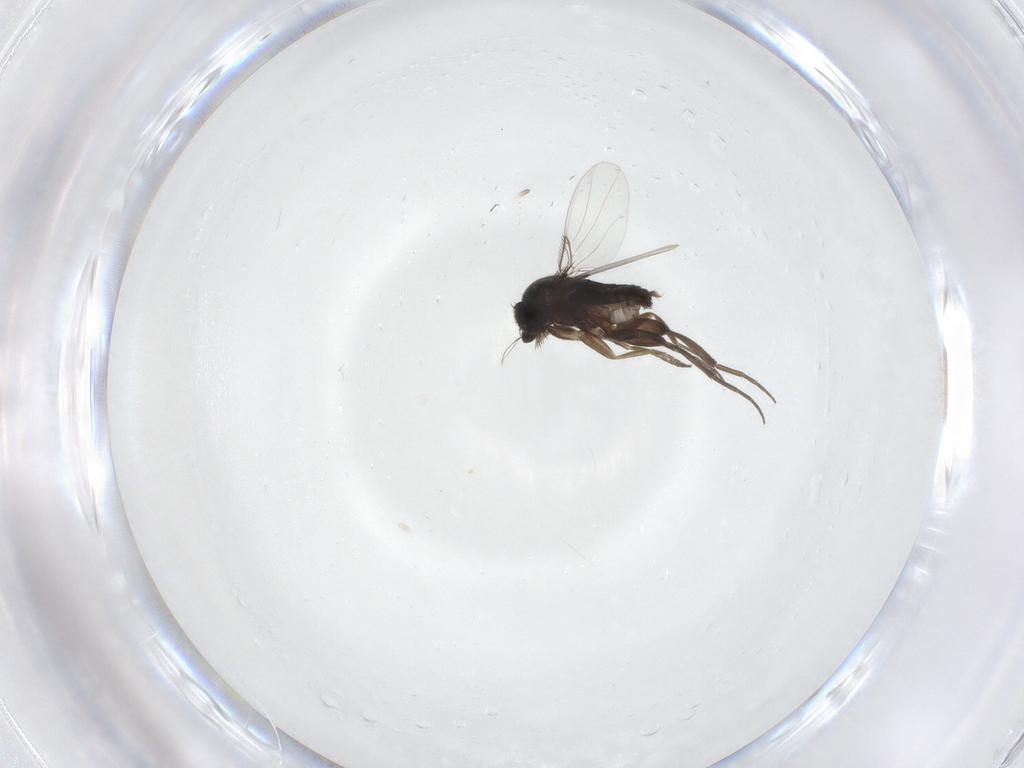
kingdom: Animalia
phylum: Arthropoda
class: Insecta
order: Diptera
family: Phoridae
